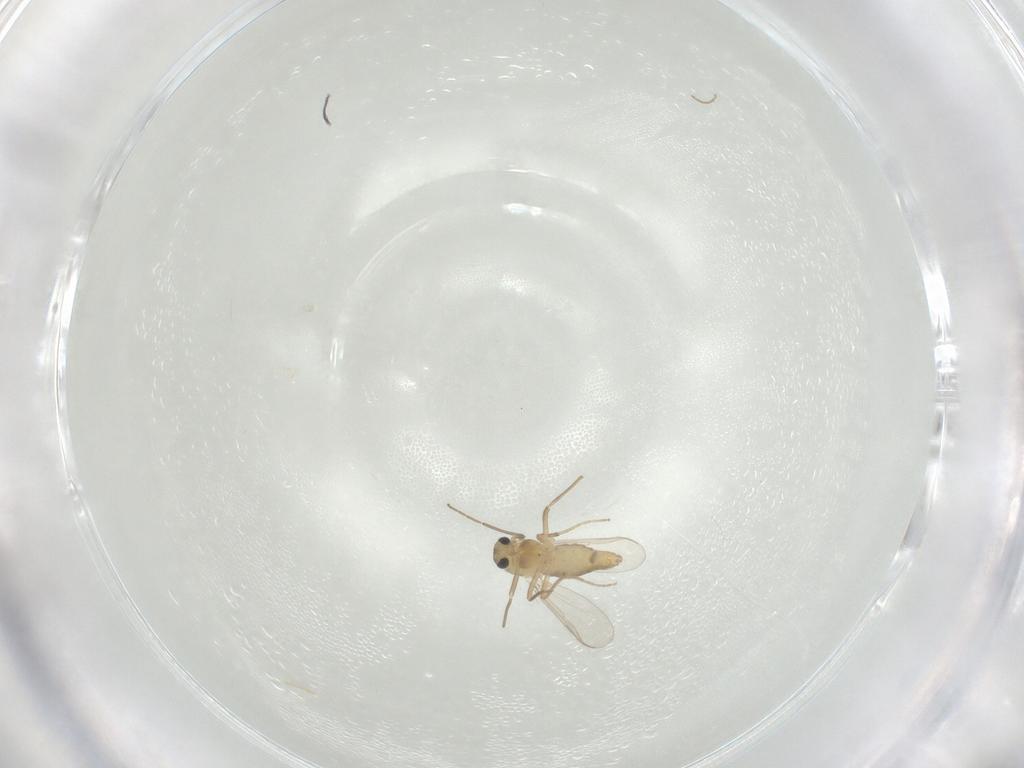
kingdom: Animalia
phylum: Arthropoda
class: Insecta
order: Diptera
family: Chironomidae
